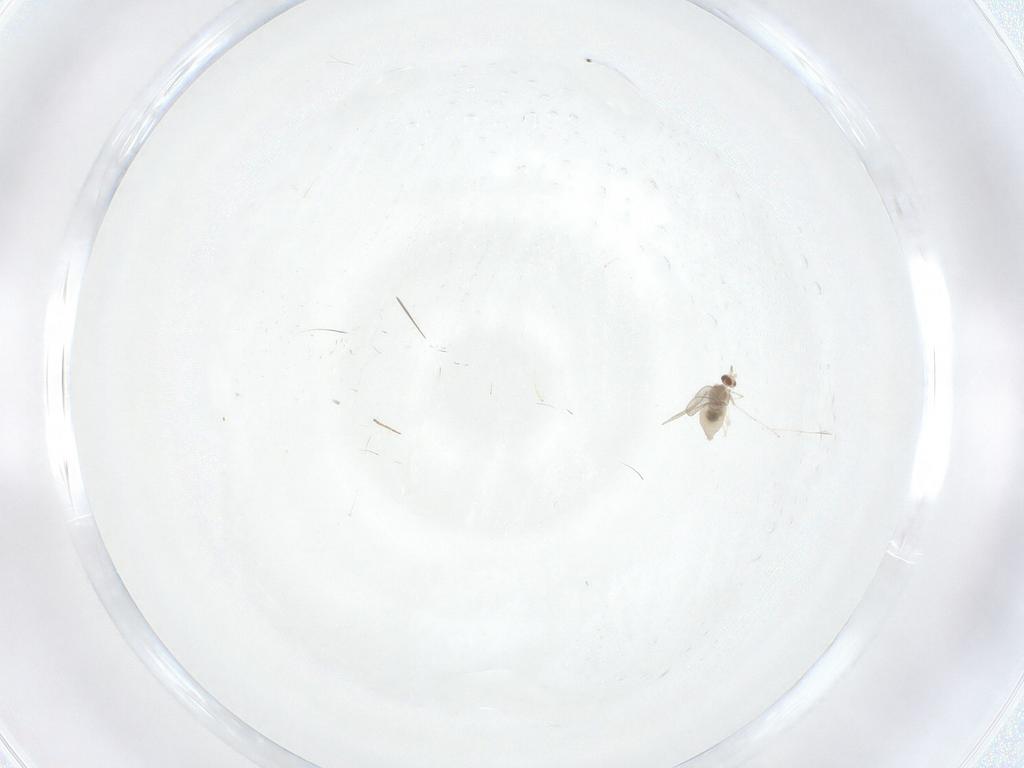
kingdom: Animalia
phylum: Arthropoda
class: Insecta
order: Diptera
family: Cecidomyiidae
